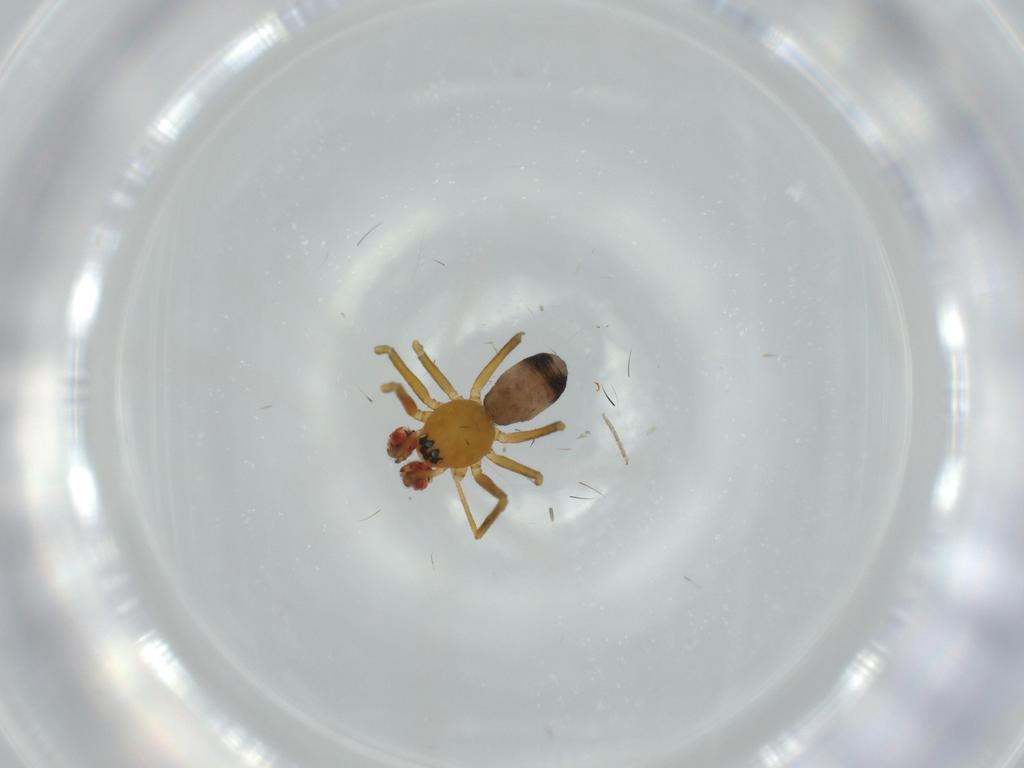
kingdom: Animalia
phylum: Arthropoda
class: Arachnida
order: Araneae
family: Linyphiidae
